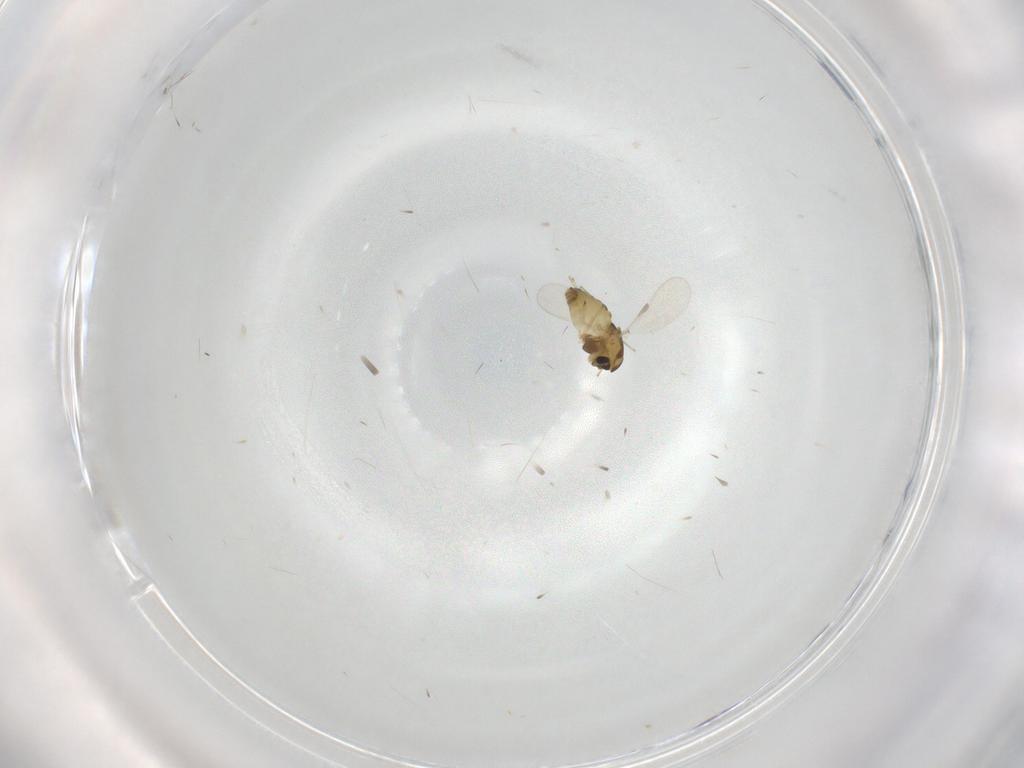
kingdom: Animalia
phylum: Arthropoda
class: Insecta
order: Diptera
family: Chironomidae
